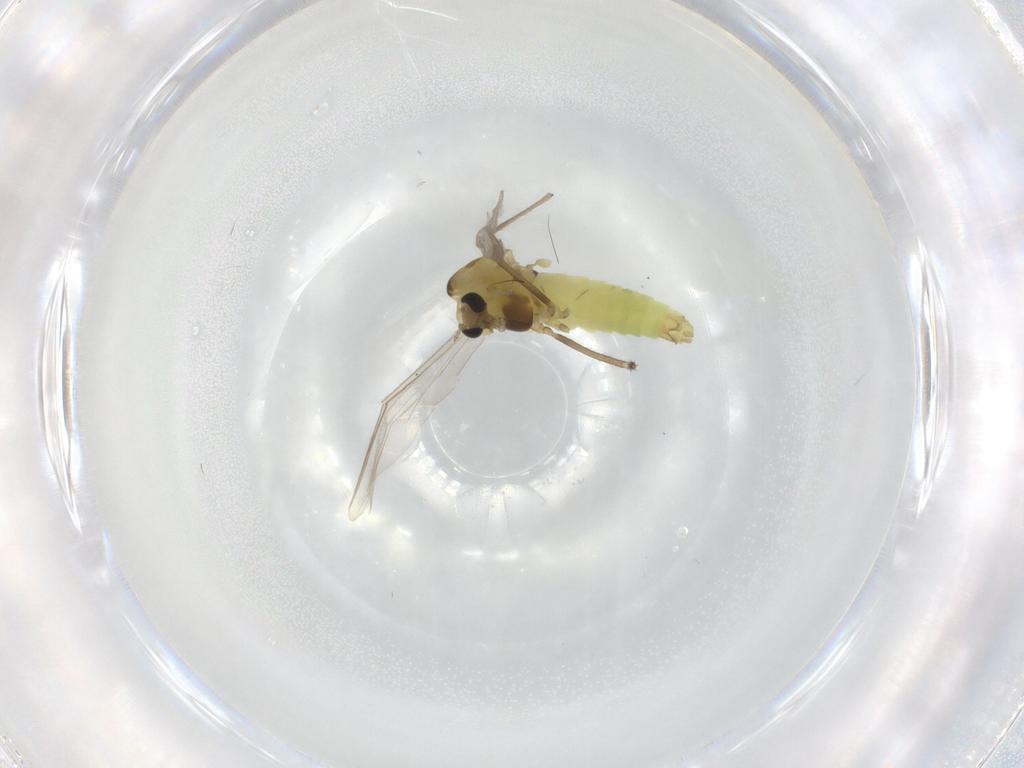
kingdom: Animalia
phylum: Arthropoda
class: Insecta
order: Diptera
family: Chironomidae
